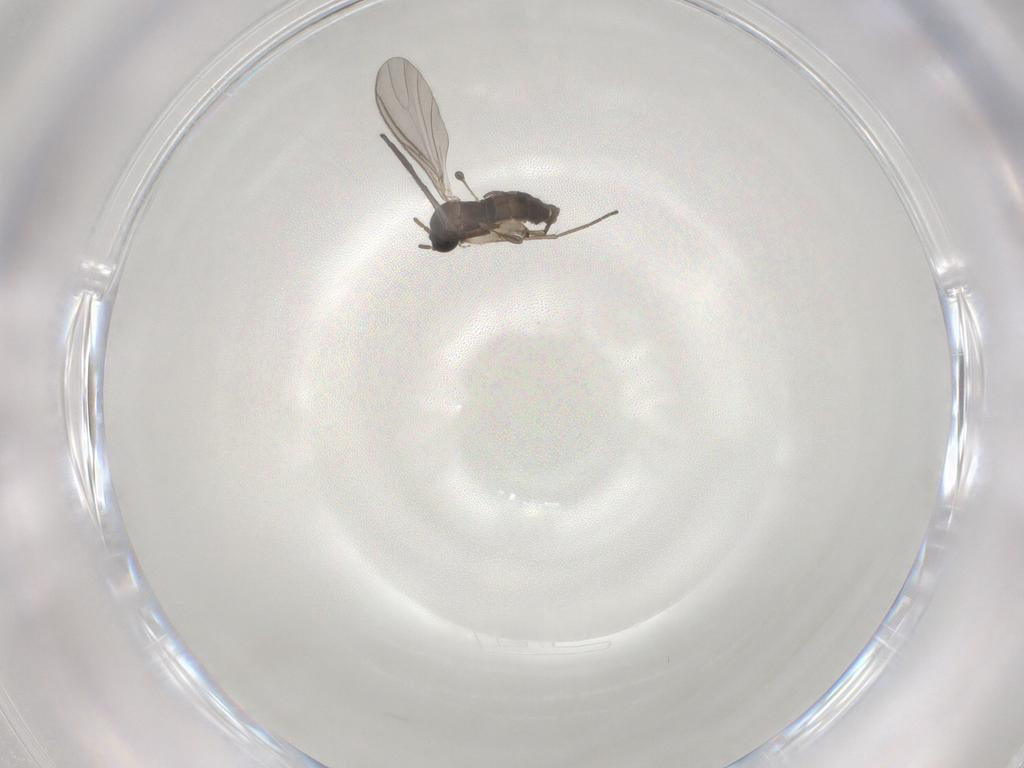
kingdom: Animalia
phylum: Arthropoda
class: Insecta
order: Diptera
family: Sciaridae
